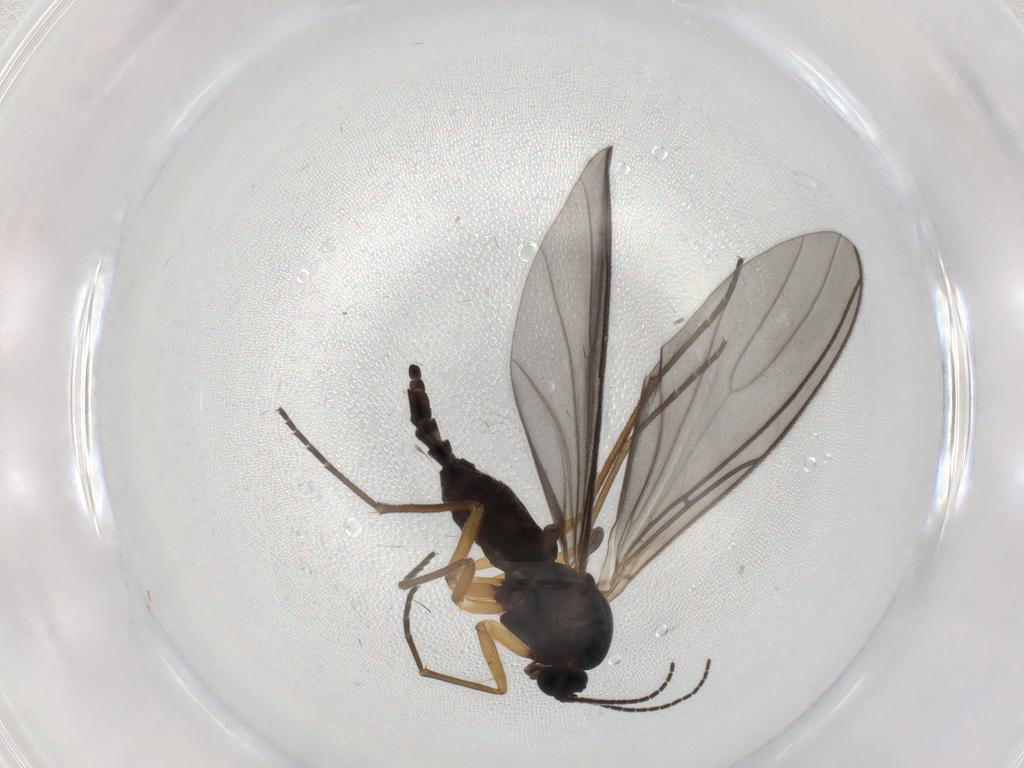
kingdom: Animalia
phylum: Arthropoda
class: Insecta
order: Diptera
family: Sciaridae
